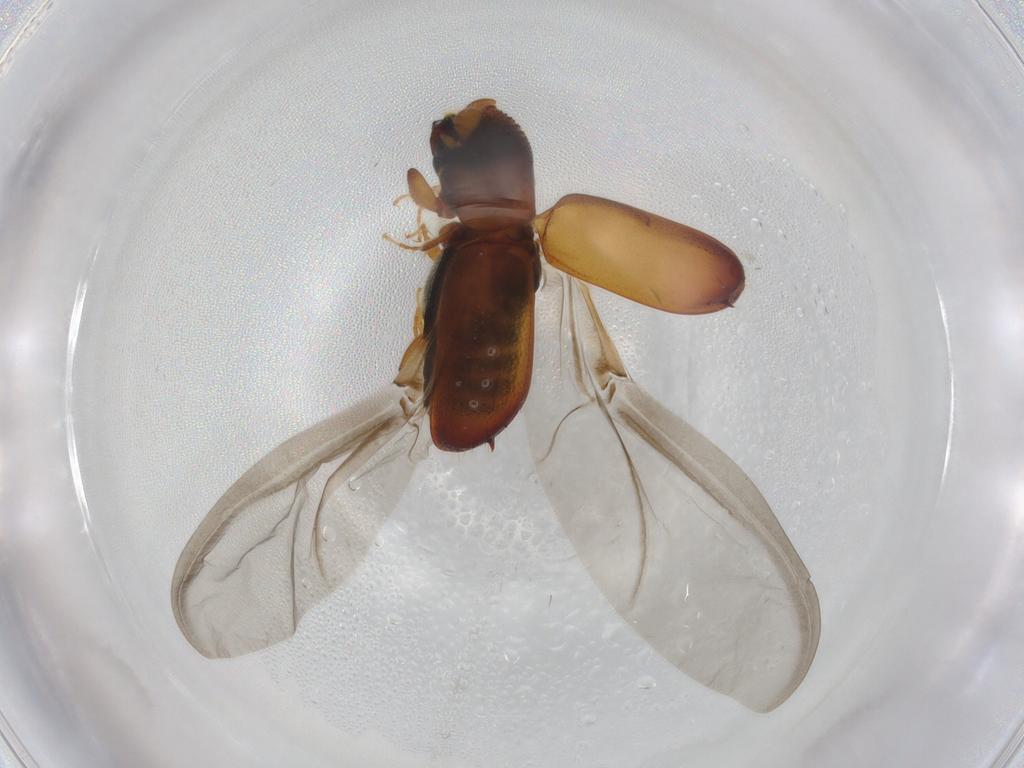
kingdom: Animalia
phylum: Arthropoda
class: Insecta
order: Coleoptera
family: Curculionidae
